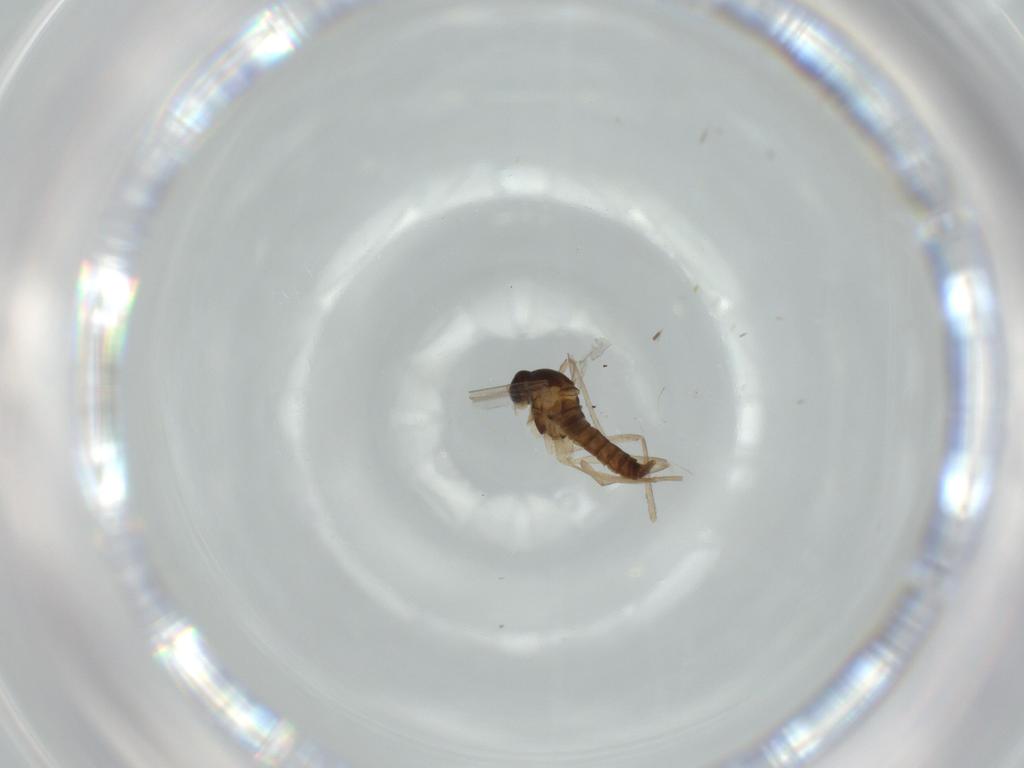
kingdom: Animalia
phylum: Arthropoda
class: Insecta
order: Diptera
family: Cecidomyiidae
